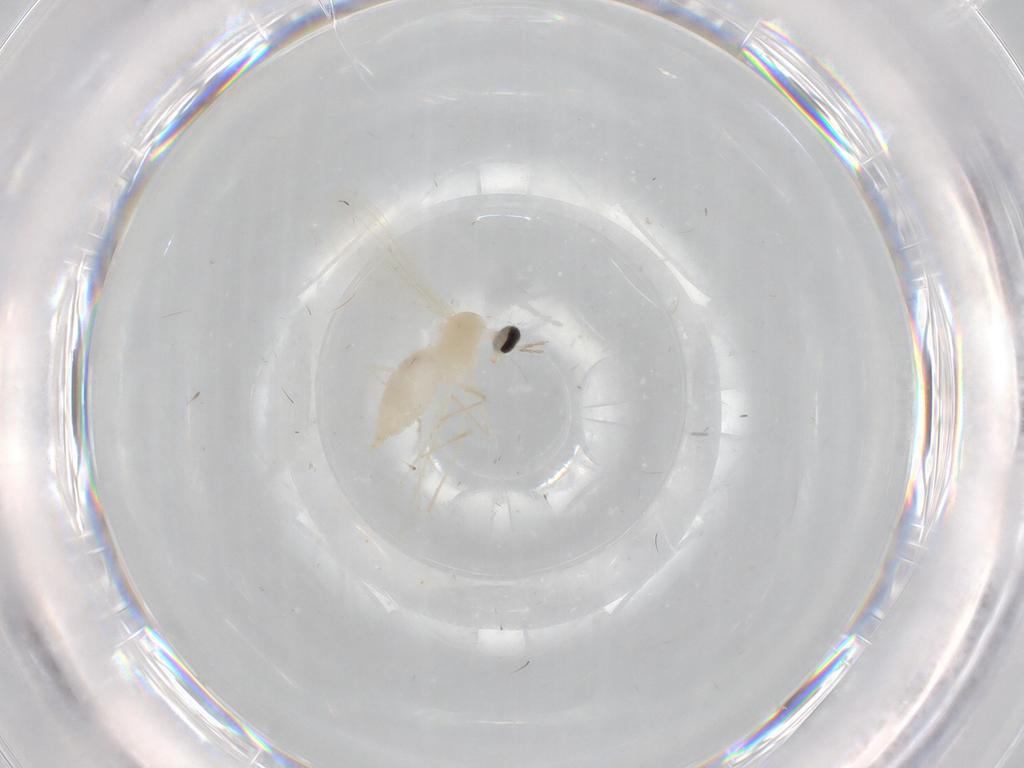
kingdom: Animalia
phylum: Arthropoda
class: Insecta
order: Diptera
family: Cecidomyiidae
